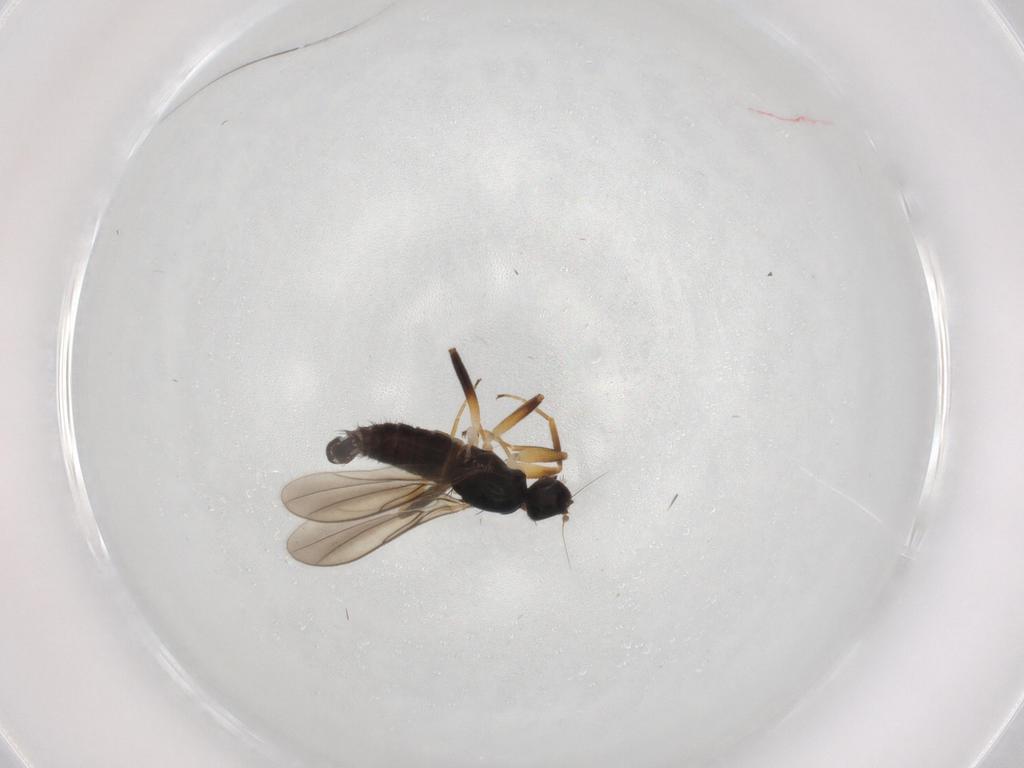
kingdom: Animalia
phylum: Arthropoda
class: Insecta
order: Diptera
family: Hybotidae
